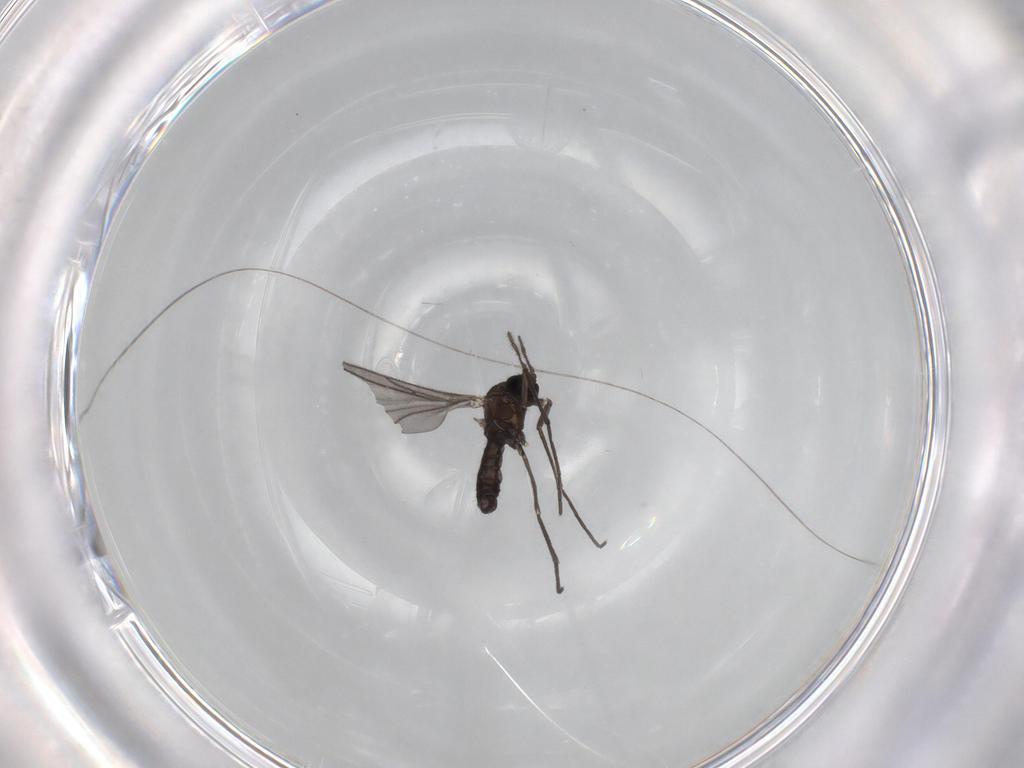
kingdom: Animalia
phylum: Arthropoda
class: Insecta
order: Diptera
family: Sciaridae
